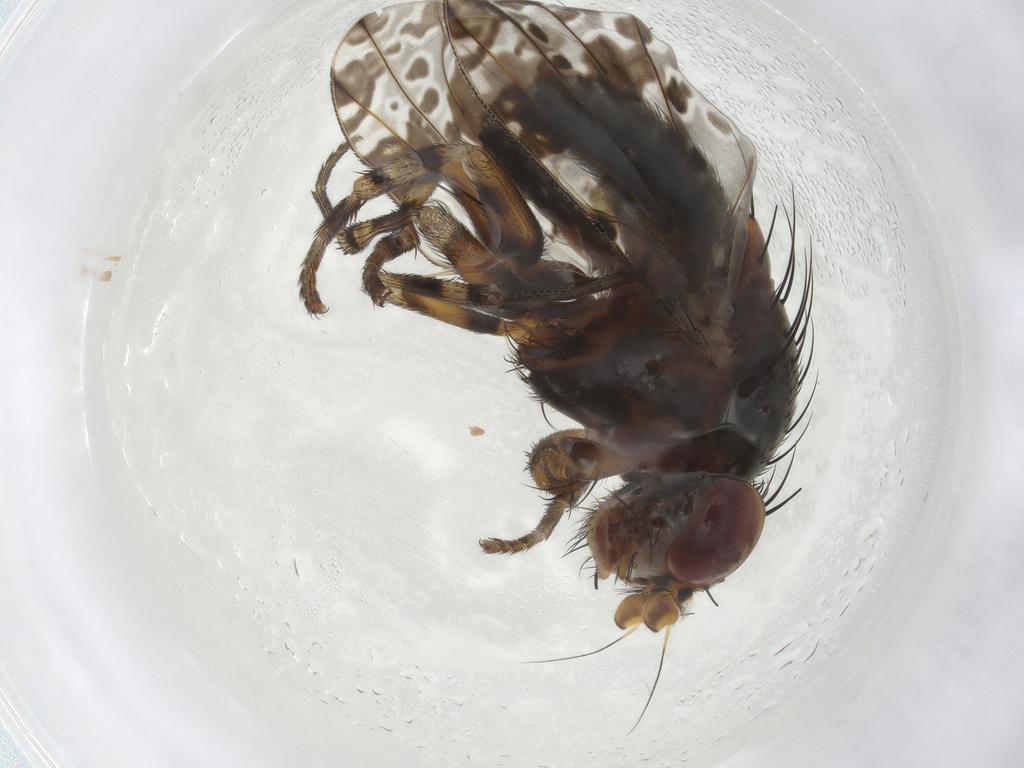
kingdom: Animalia
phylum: Arthropoda
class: Insecta
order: Diptera
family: Odiniidae
